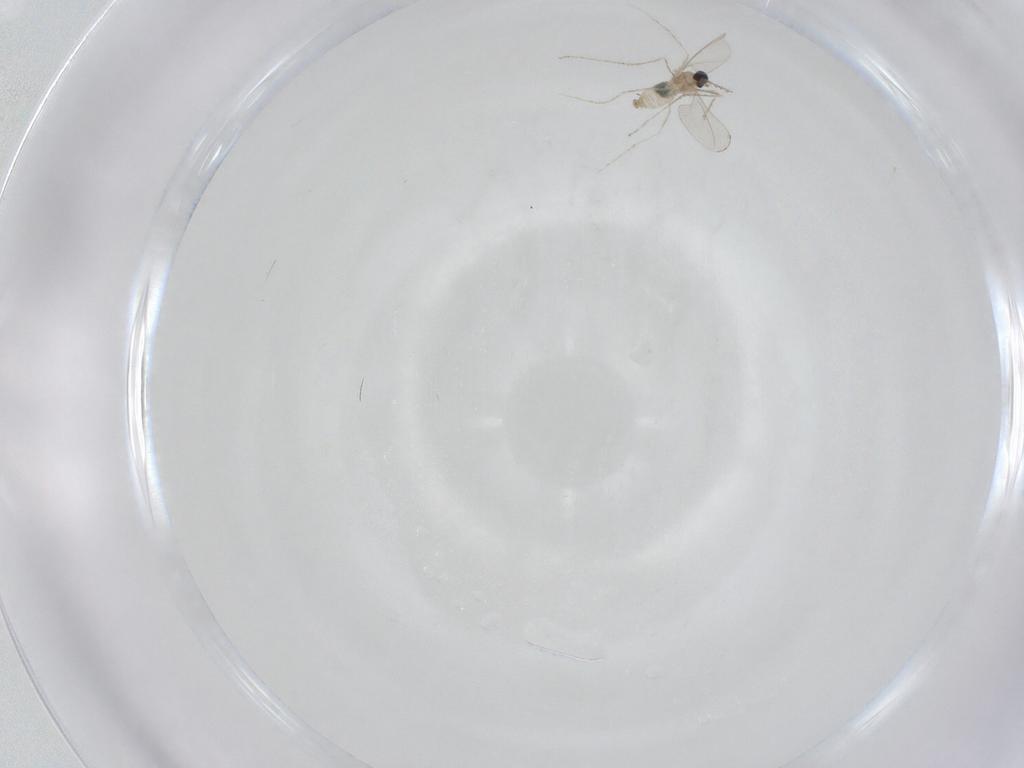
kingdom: Animalia
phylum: Arthropoda
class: Insecta
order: Diptera
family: Chironomidae
